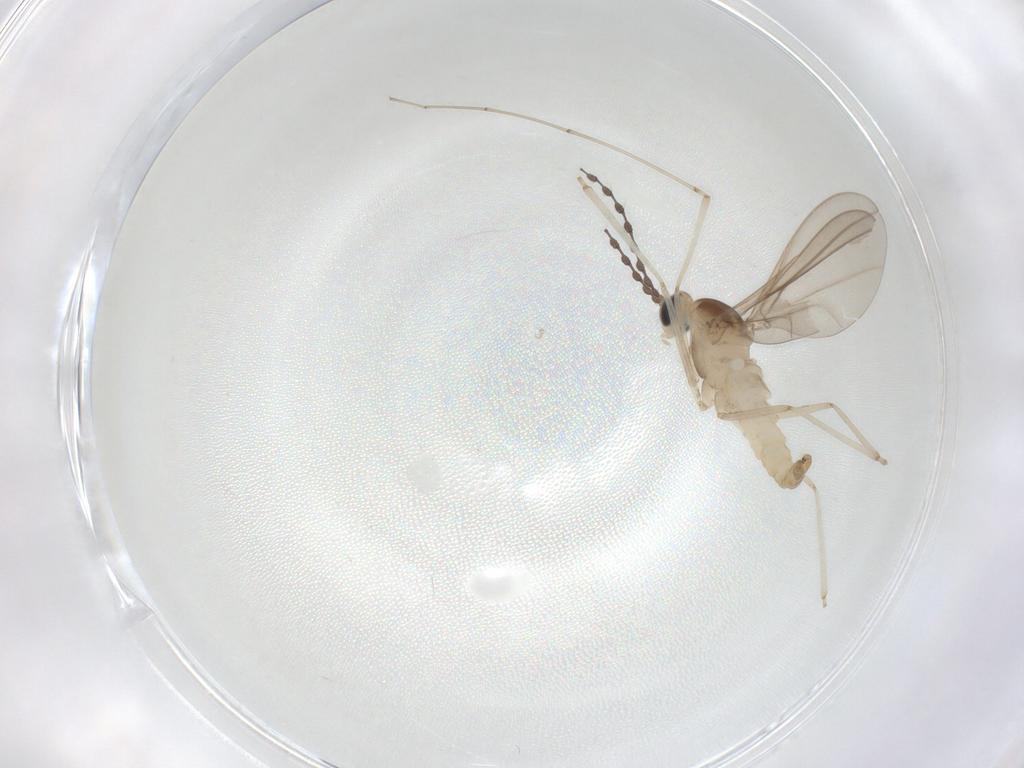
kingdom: Animalia
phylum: Arthropoda
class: Insecta
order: Diptera
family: Cecidomyiidae
